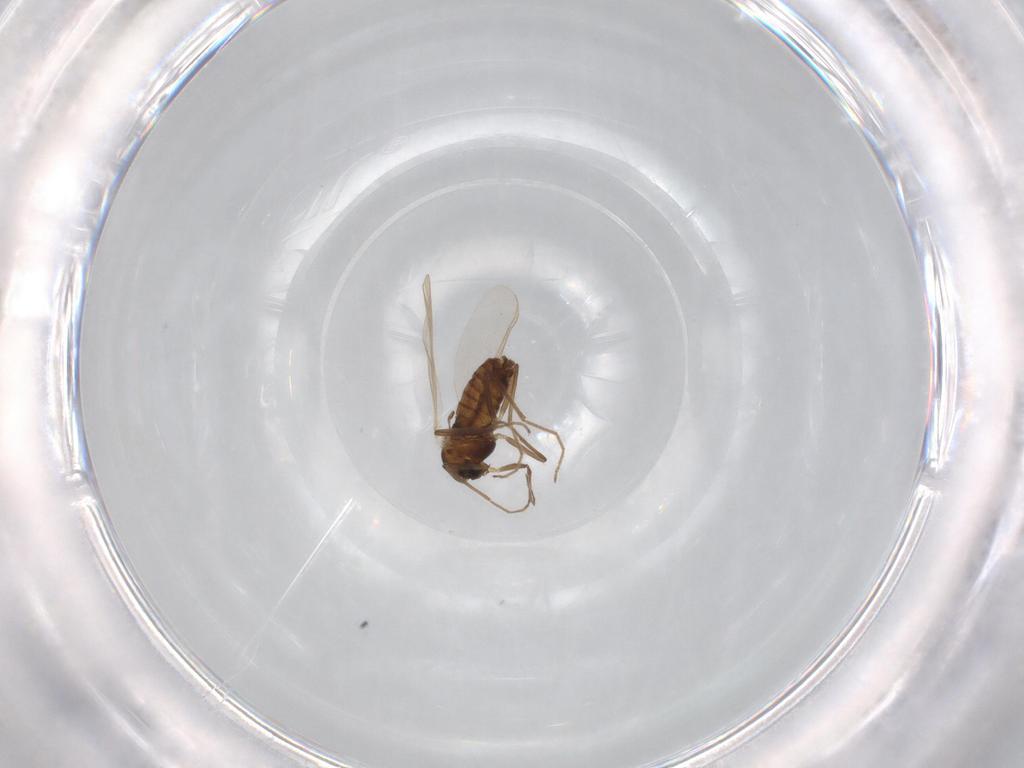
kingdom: Animalia
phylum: Arthropoda
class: Insecta
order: Diptera
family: Chironomidae
